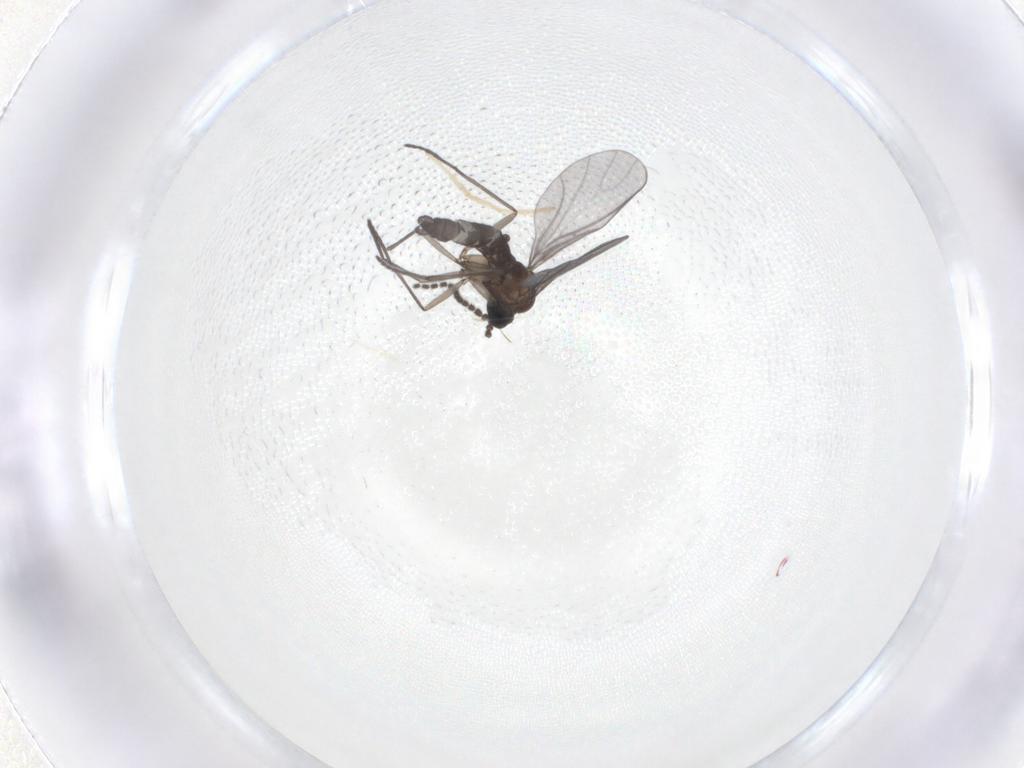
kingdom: Animalia
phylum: Arthropoda
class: Insecta
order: Diptera
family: Sciaridae
